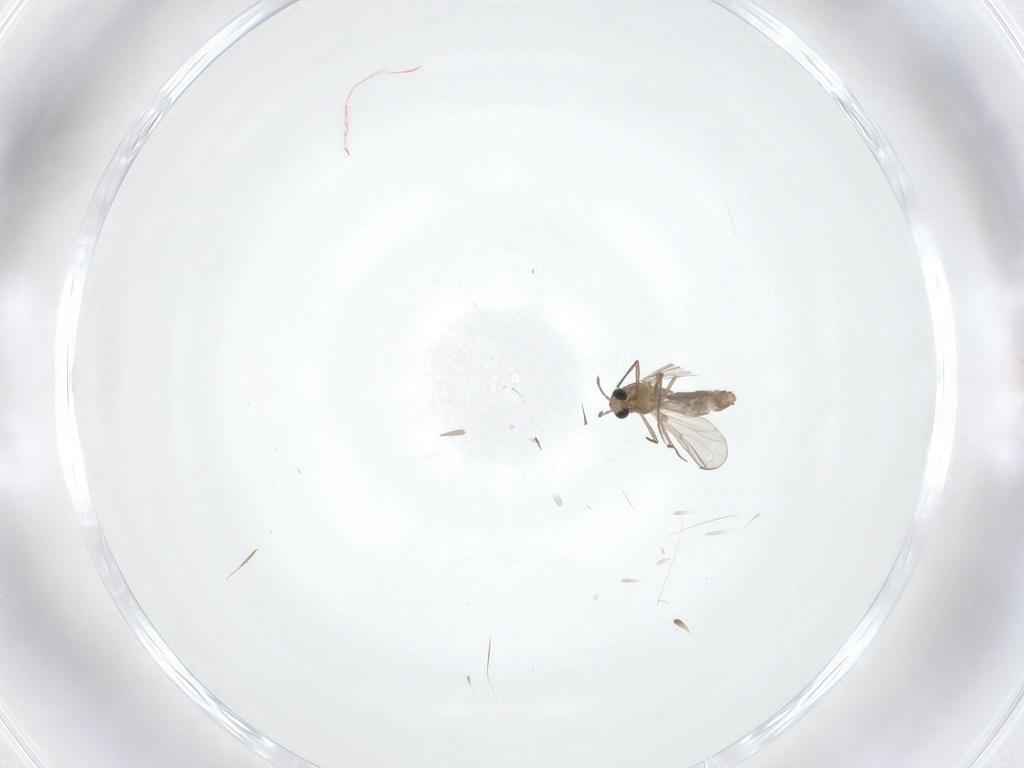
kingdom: Animalia
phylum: Arthropoda
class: Insecta
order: Diptera
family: Chironomidae
